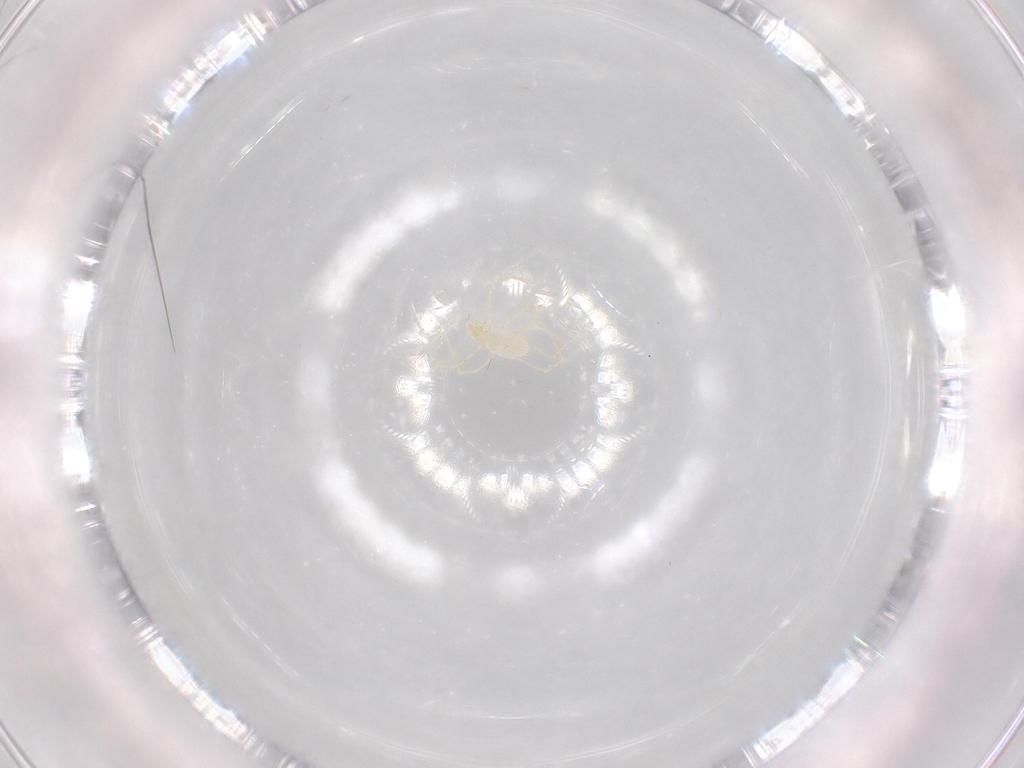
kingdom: Animalia
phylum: Arthropoda
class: Arachnida
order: Trombidiformes
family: Erythraeidae
